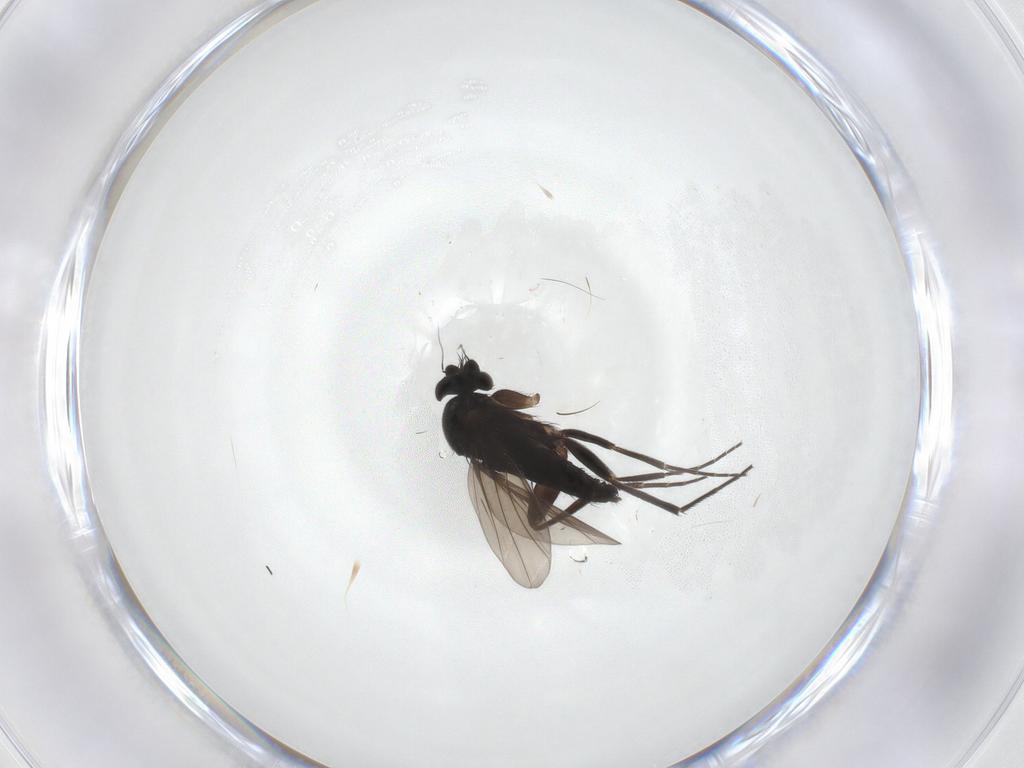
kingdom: Animalia
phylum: Arthropoda
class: Insecta
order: Diptera
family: Phoridae
